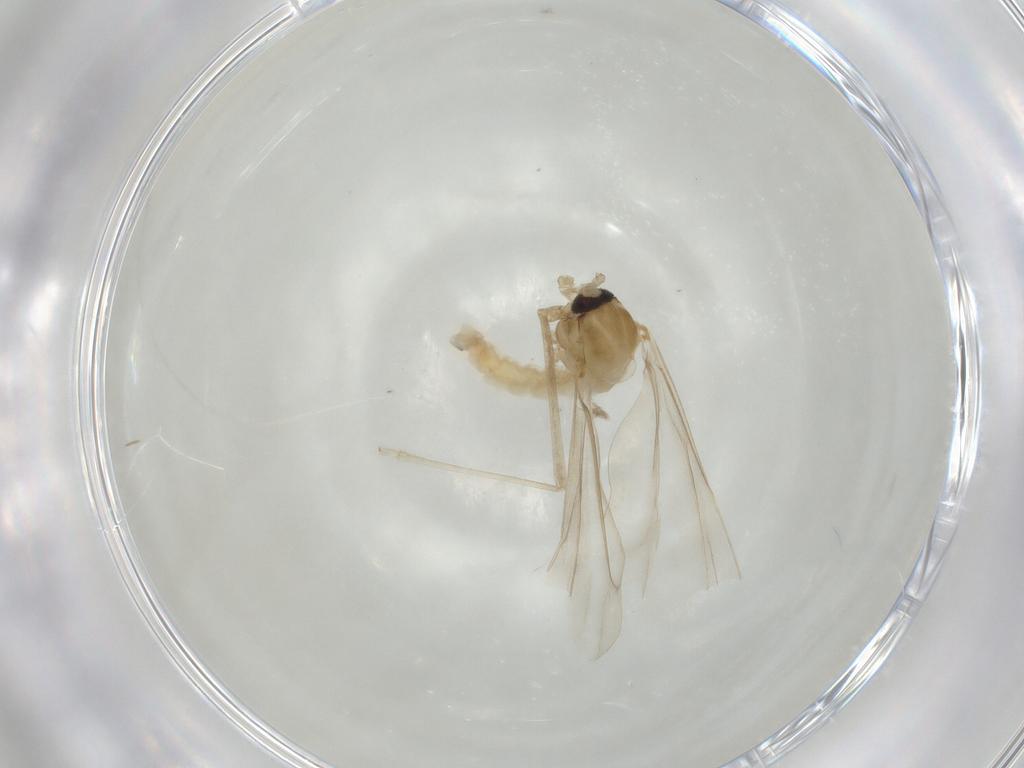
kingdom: Animalia
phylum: Arthropoda
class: Insecta
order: Diptera
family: Cecidomyiidae
